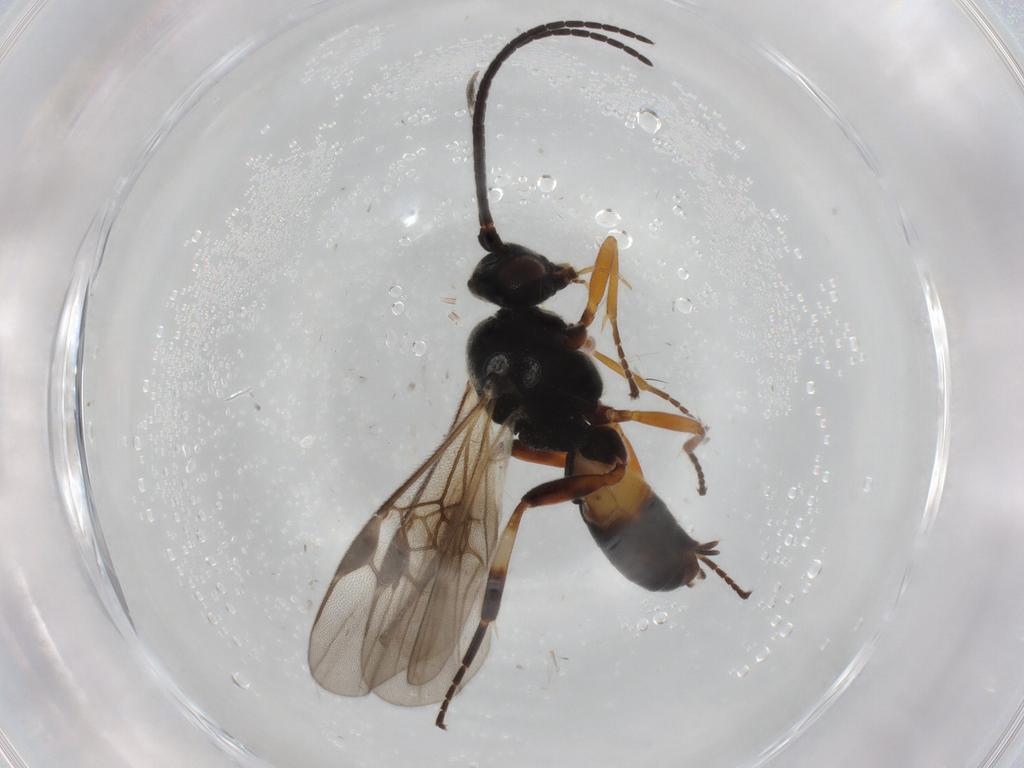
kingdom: Animalia
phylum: Arthropoda
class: Insecta
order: Hymenoptera
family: Braconidae
